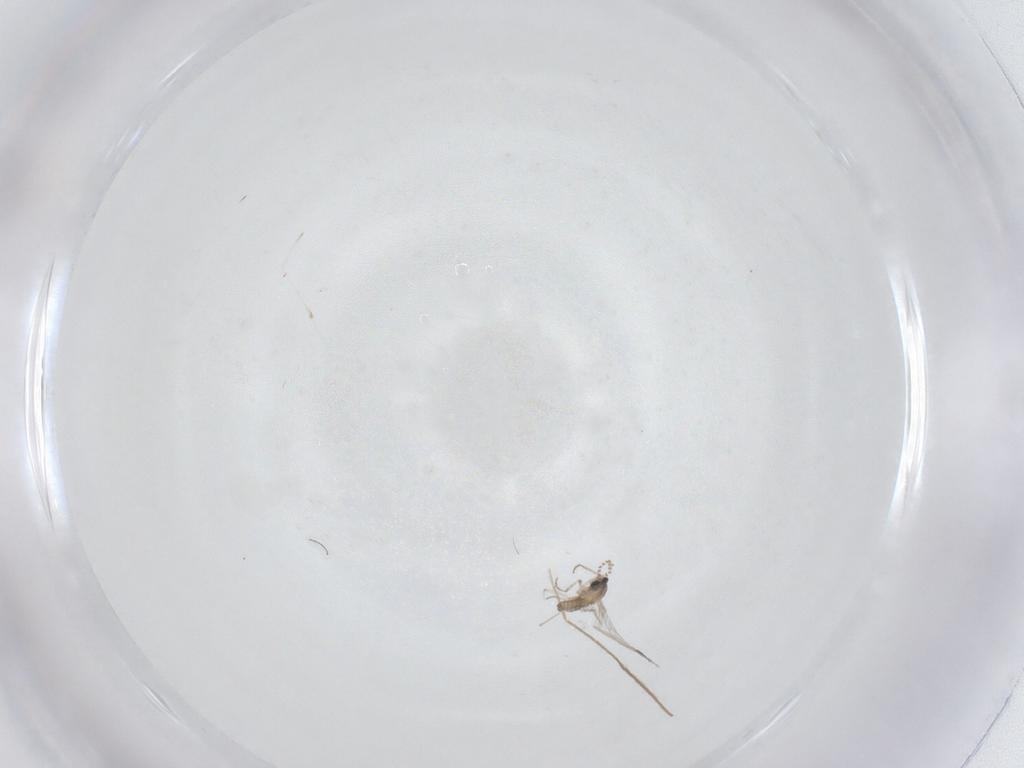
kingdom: Animalia
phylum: Arthropoda
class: Insecta
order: Diptera
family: Cecidomyiidae
